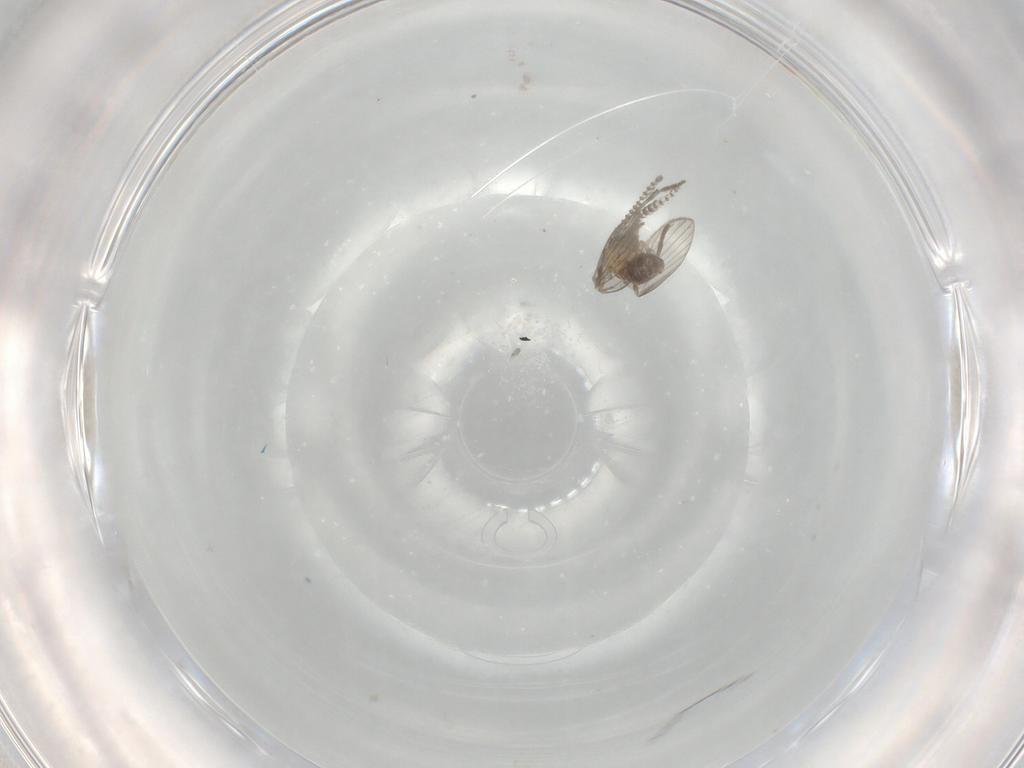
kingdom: Animalia
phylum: Arthropoda
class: Insecta
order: Diptera
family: Psychodidae
